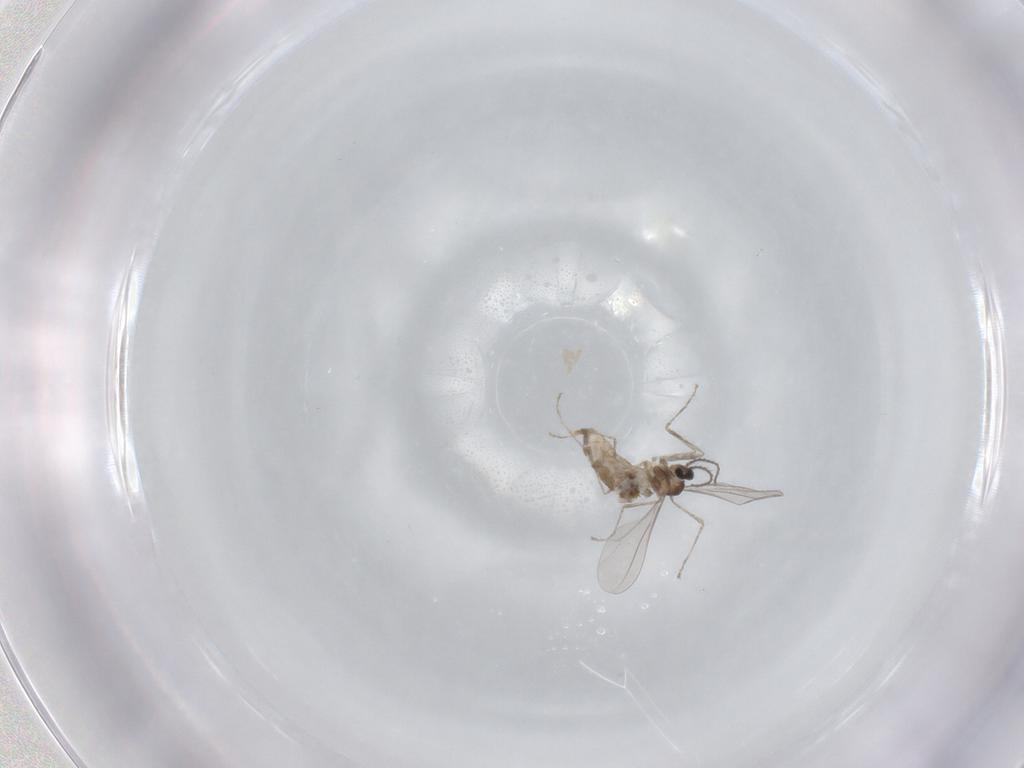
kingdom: Animalia
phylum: Arthropoda
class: Insecta
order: Diptera
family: Cecidomyiidae
